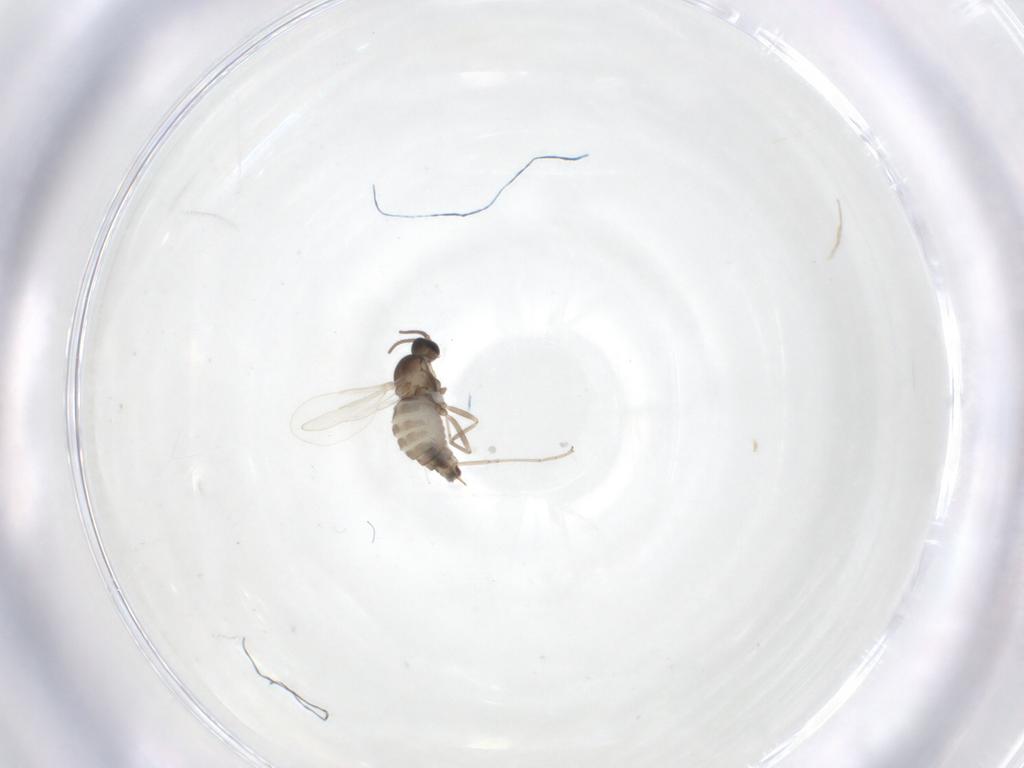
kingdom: Animalia
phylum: Arthropoda
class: Insecta
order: Diptera
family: Cecidomyiidae
